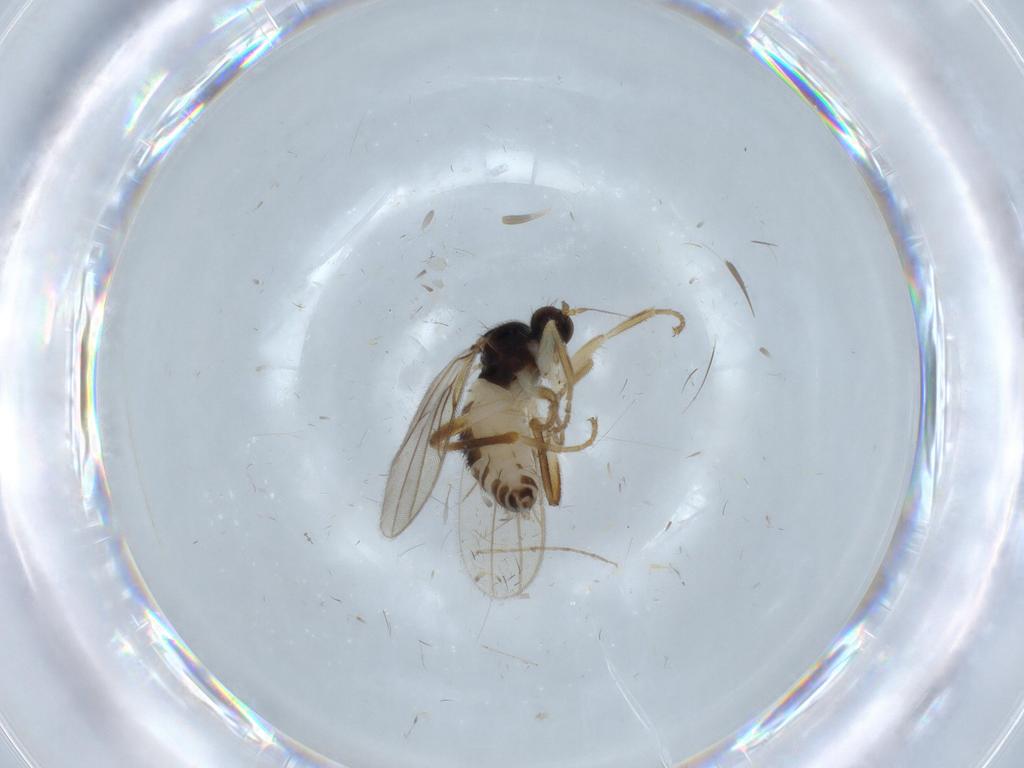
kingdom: Animalia
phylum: Arthropoda
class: Insecta
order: Diptera
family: Hybotidae
